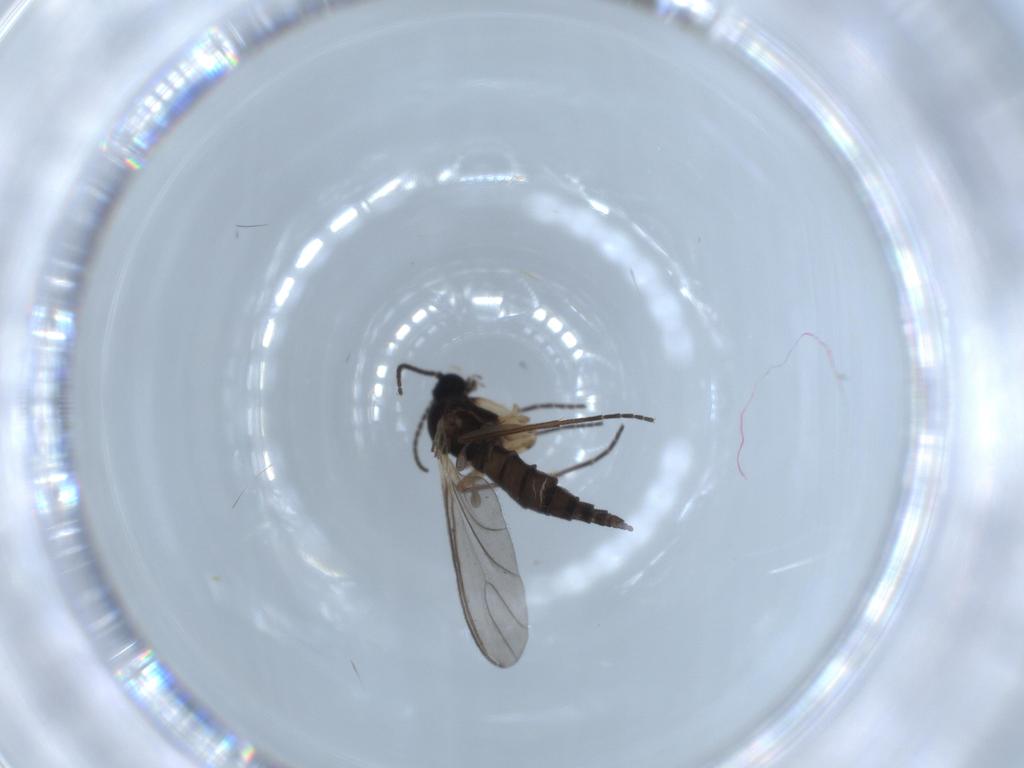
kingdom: Animalia
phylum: Arthropoda
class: Insecta
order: Diptera
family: Sciaridae
